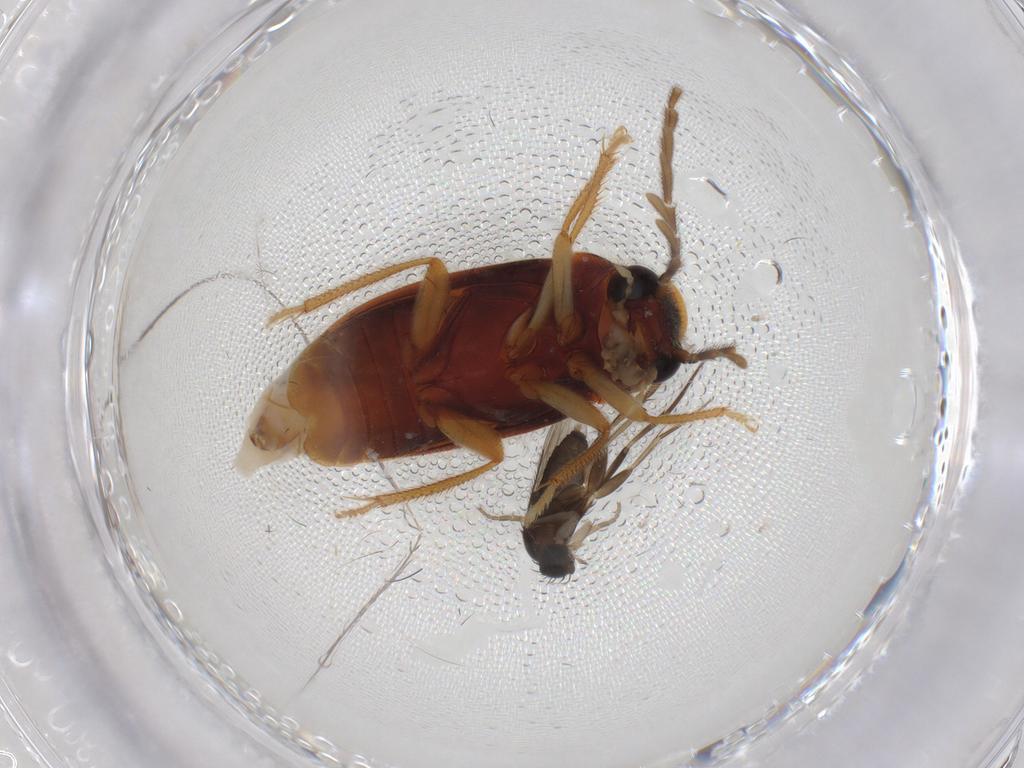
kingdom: Animalia
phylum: Arthropoda
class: Insecta
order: Coleoptera
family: Ptilodactylidae
